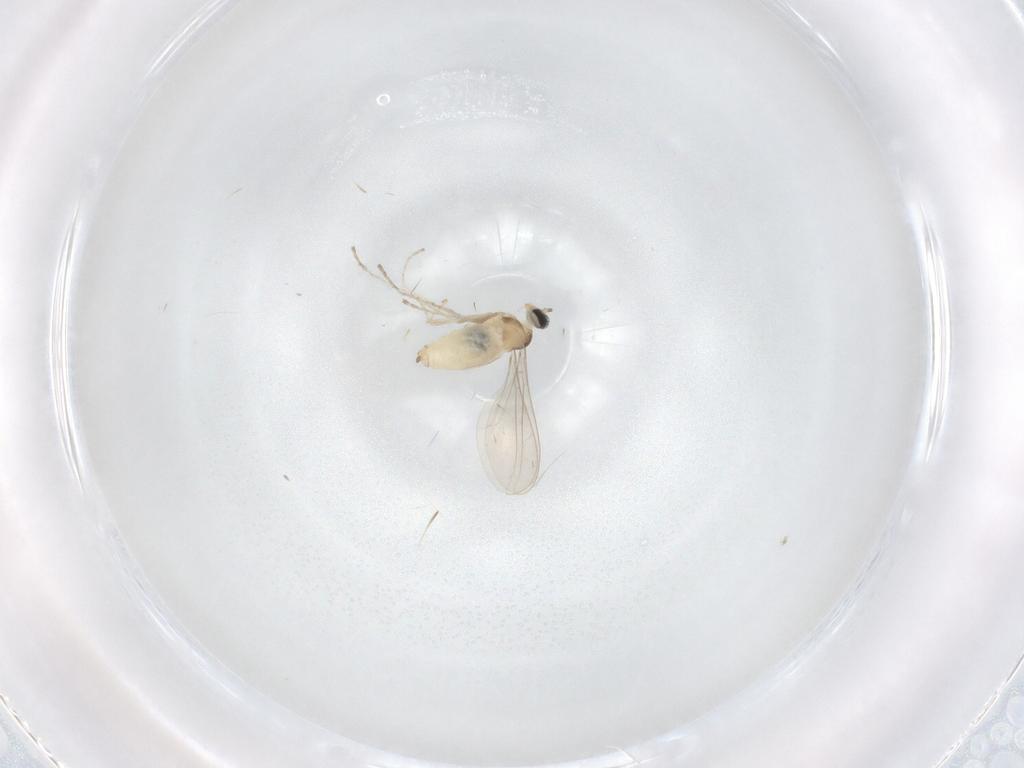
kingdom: Animalia
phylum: Arthropoda
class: Insecta
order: Diptera
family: Cecidomyiidae
